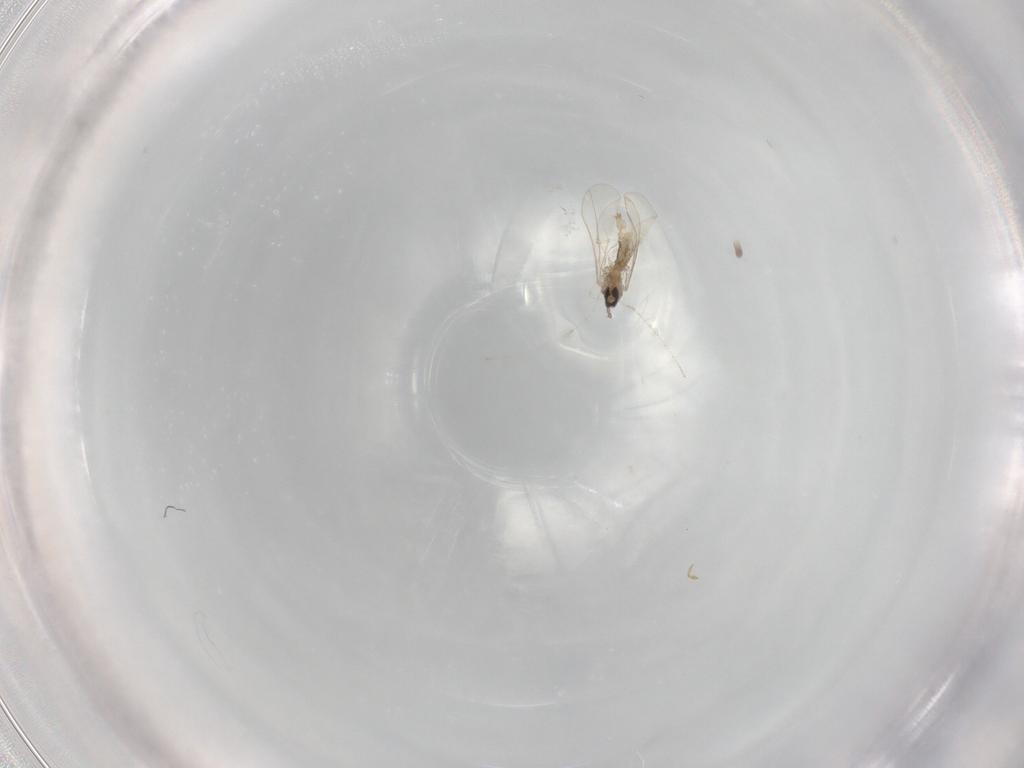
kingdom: Animalia
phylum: Arthropoda
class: Insecta
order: Diptera
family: Cecidomyiidae
